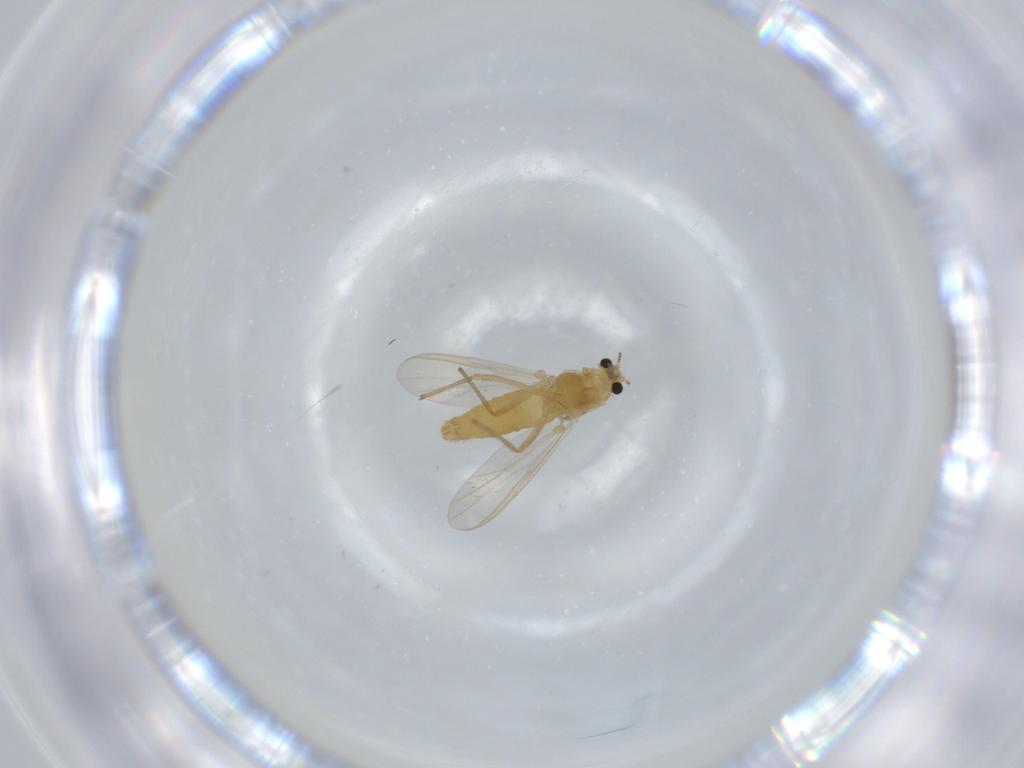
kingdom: Animalia
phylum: Arthropoda
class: Insecta
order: Diptera
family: Chironomidae
